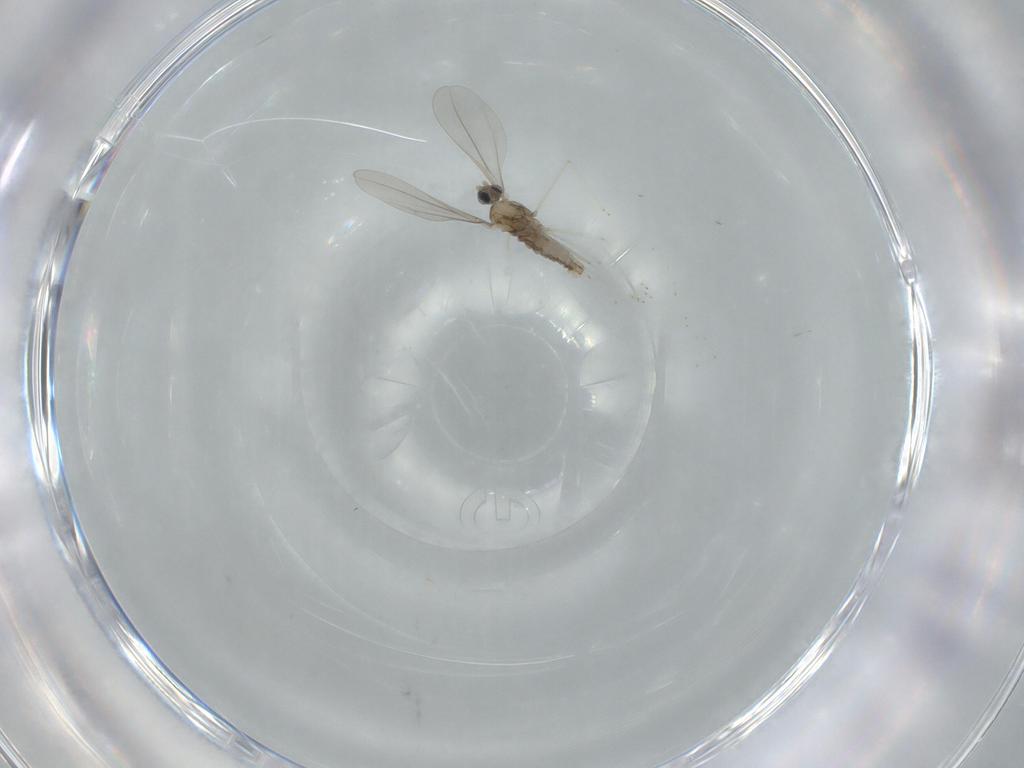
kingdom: Animalia
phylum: Arthropoda
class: Insecta
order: Diptera
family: Cecidomyiidae
